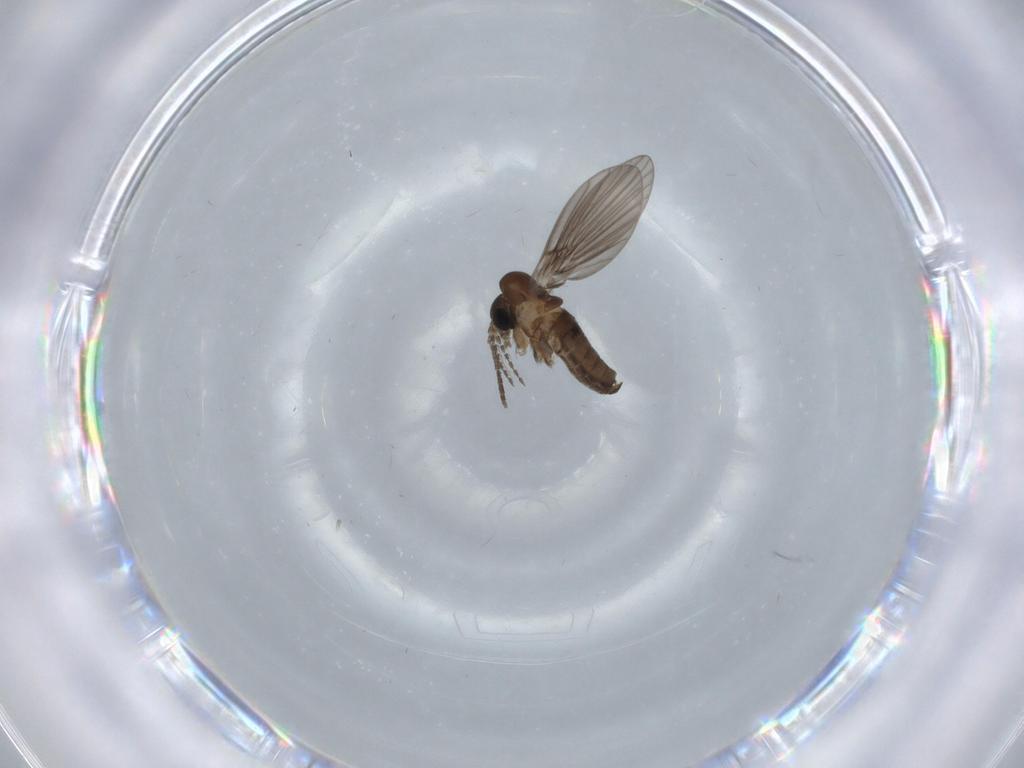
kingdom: Animalia
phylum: Arthropoda
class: Insecta
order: Diptera
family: Psychodidae
